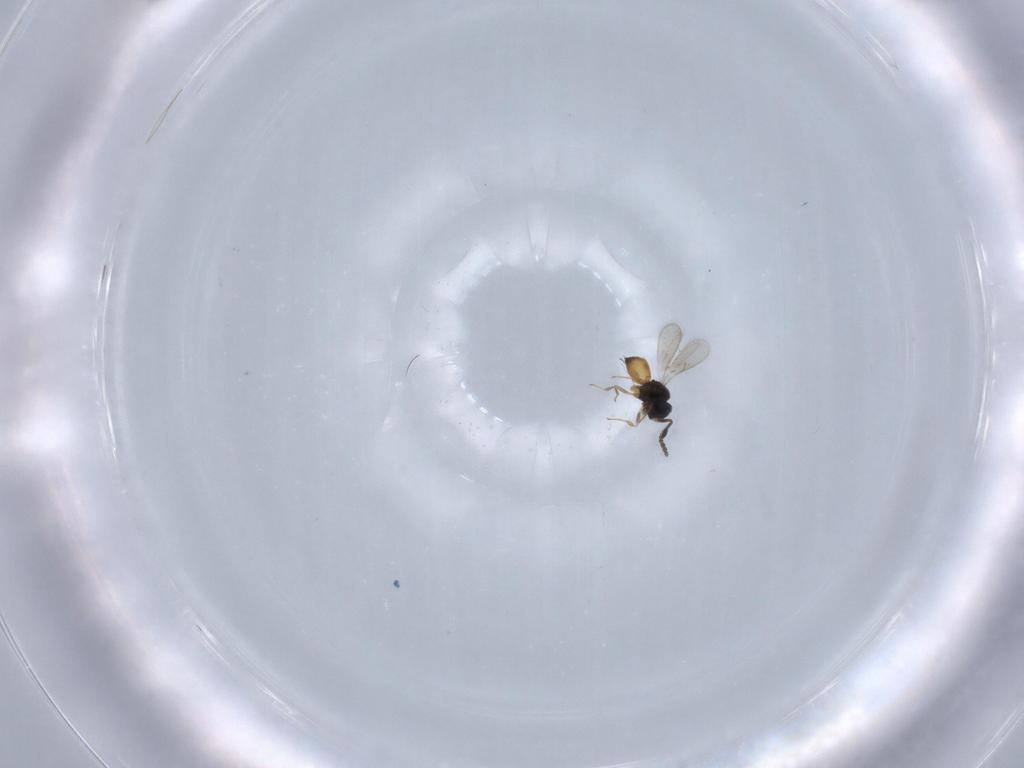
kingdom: Animalia
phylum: Arthropoda
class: Insecta
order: Hymenoptera
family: Scelionidae
